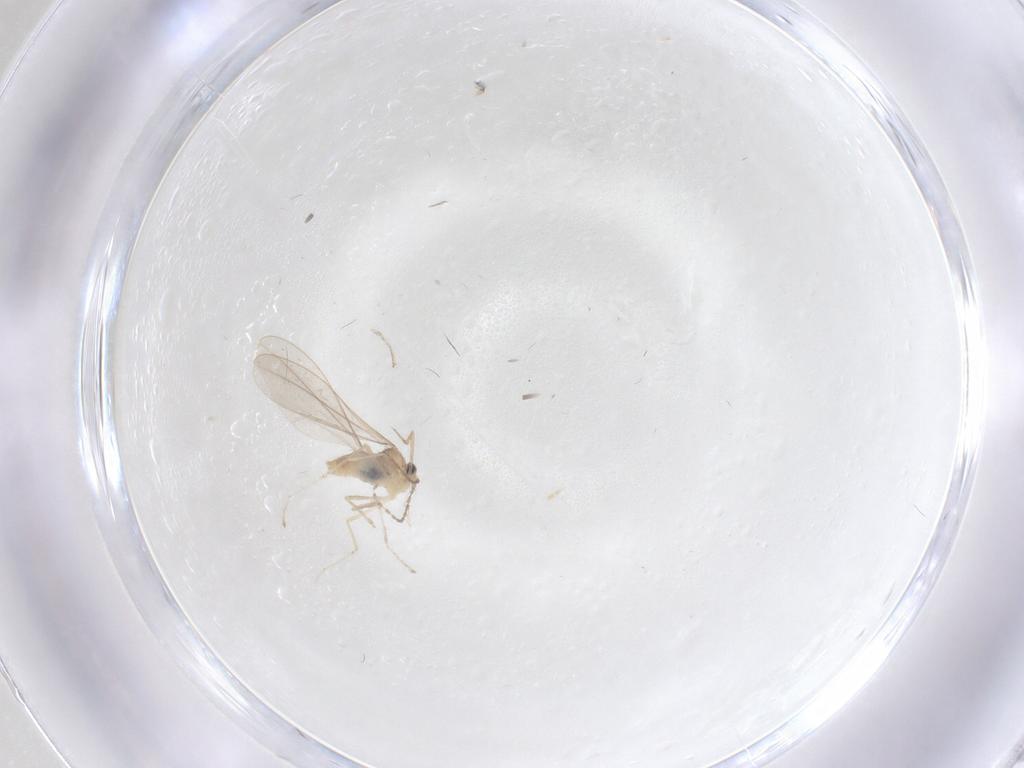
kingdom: Animalia
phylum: Arthropoda
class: Insecta
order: Diptera
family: Cecidomyiidae
